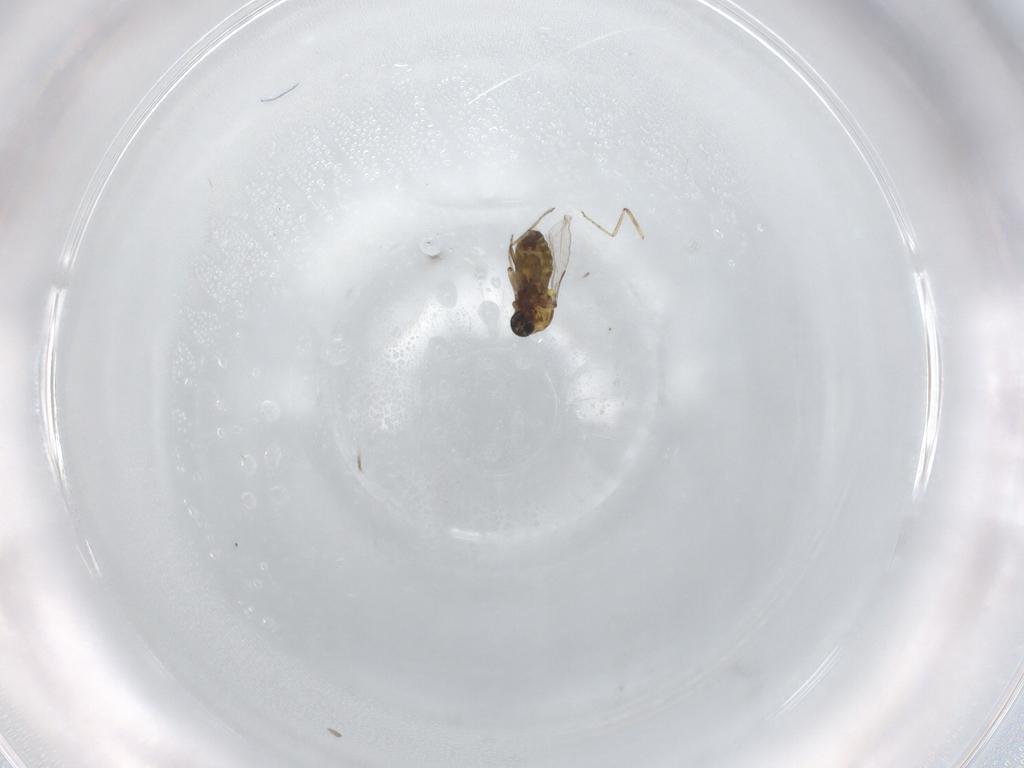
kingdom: Animalia
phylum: Arthropoda
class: Insecta
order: Diptera
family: Ceratopogonidae
